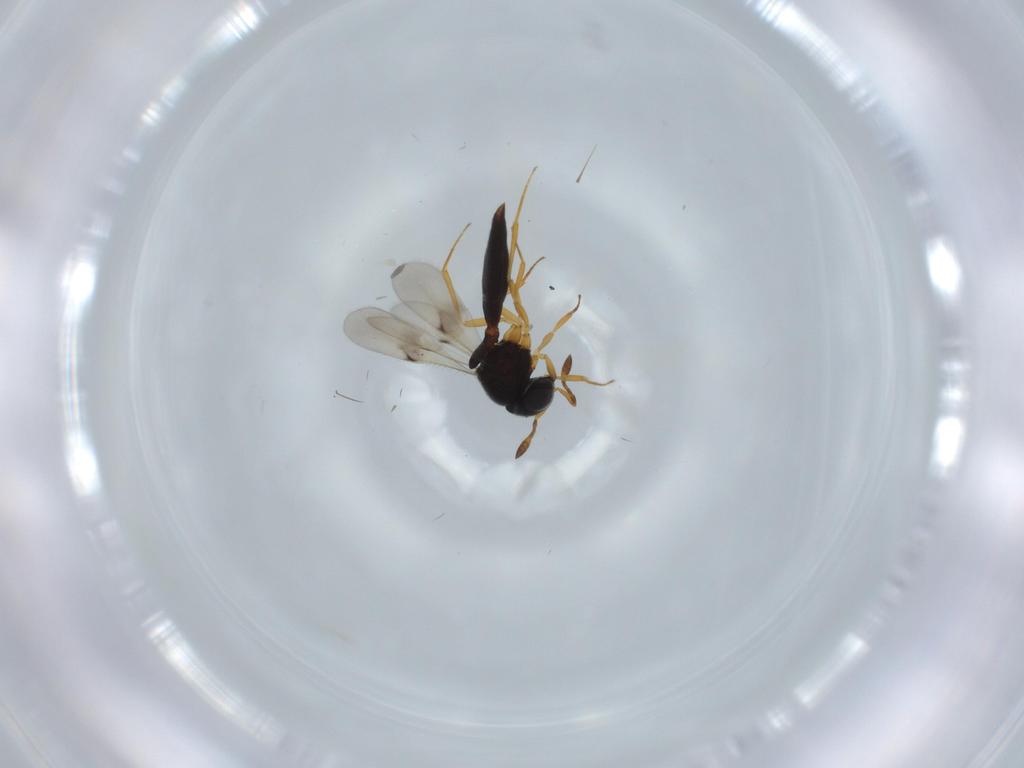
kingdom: Animalia
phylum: Arthropoda
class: Insecta
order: Hymenoptera
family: Scelionidae
